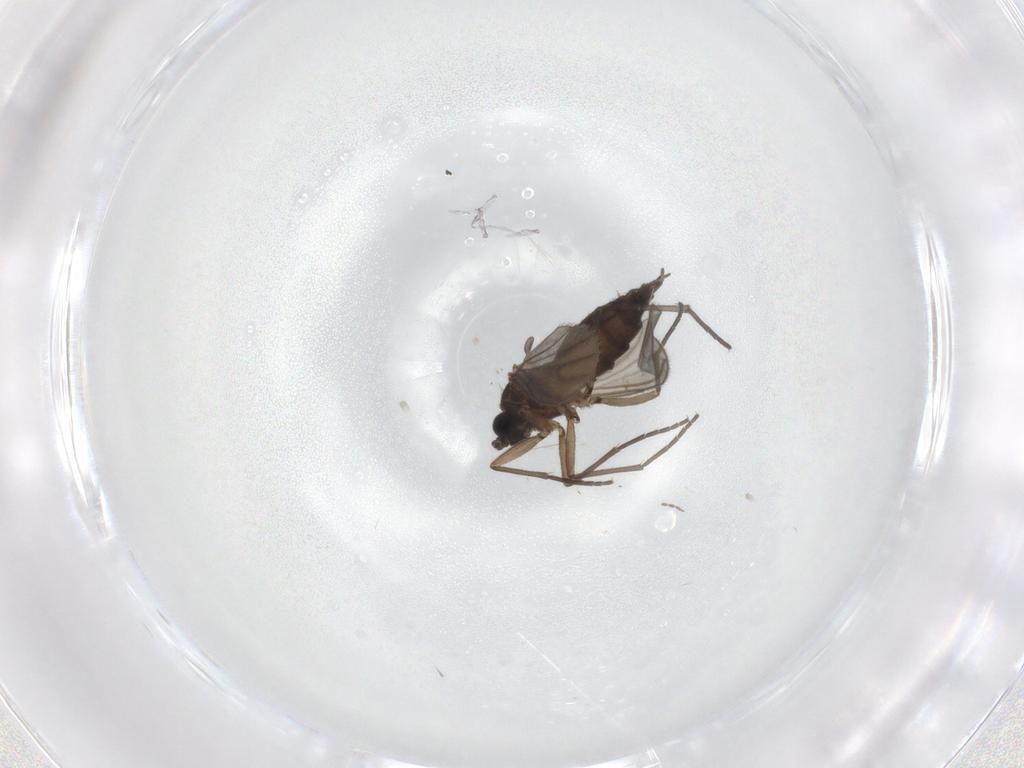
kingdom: Animalia
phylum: Arthropoda
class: Insecta
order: Diptera
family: Sciaridae
